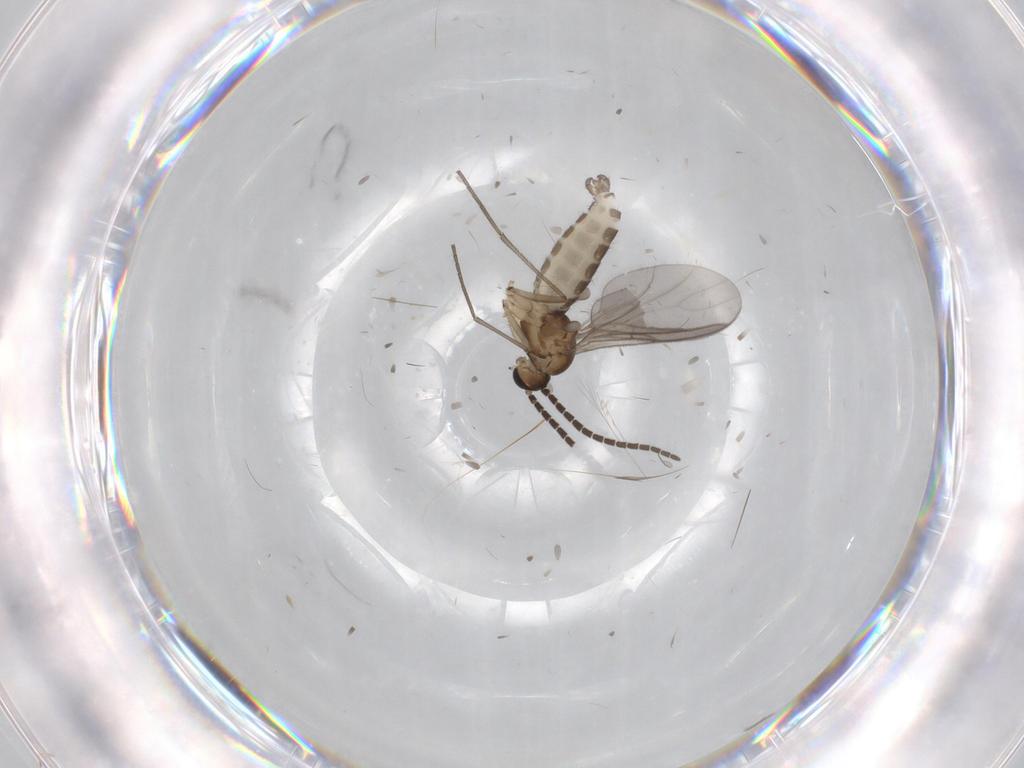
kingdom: Animalia
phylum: Arthropoda
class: Insecta
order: Diptera
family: Sciaridae
